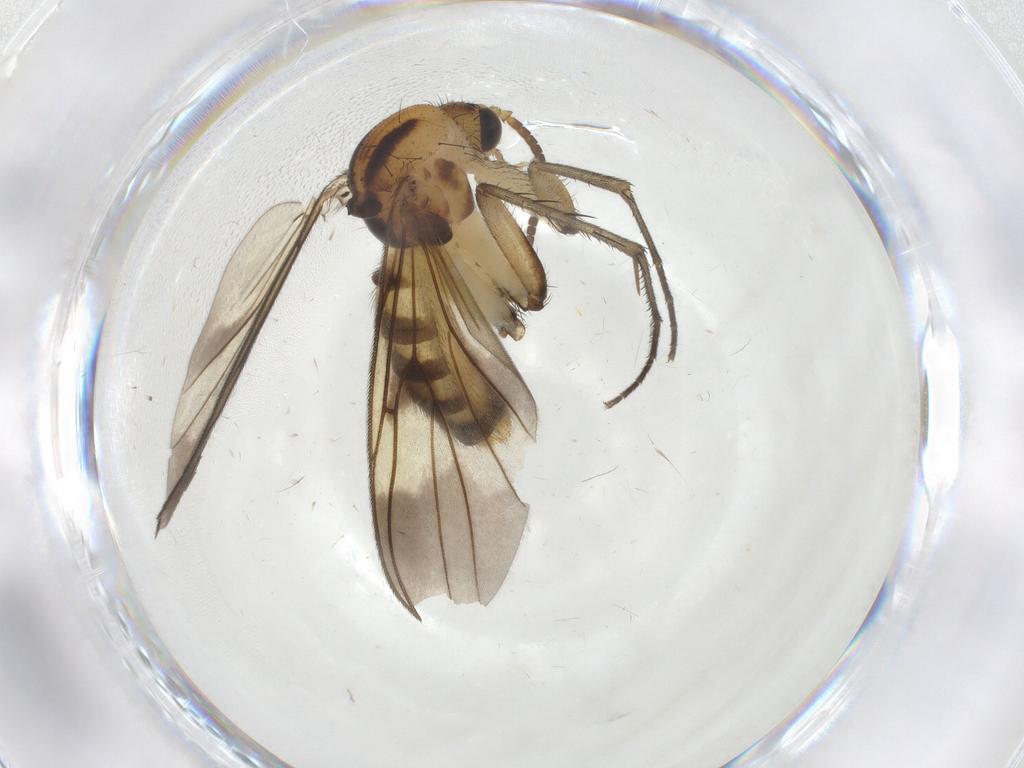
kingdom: Animalia
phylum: Arthropoda
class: Insecta
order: Diptera
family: Mycetophilidae
